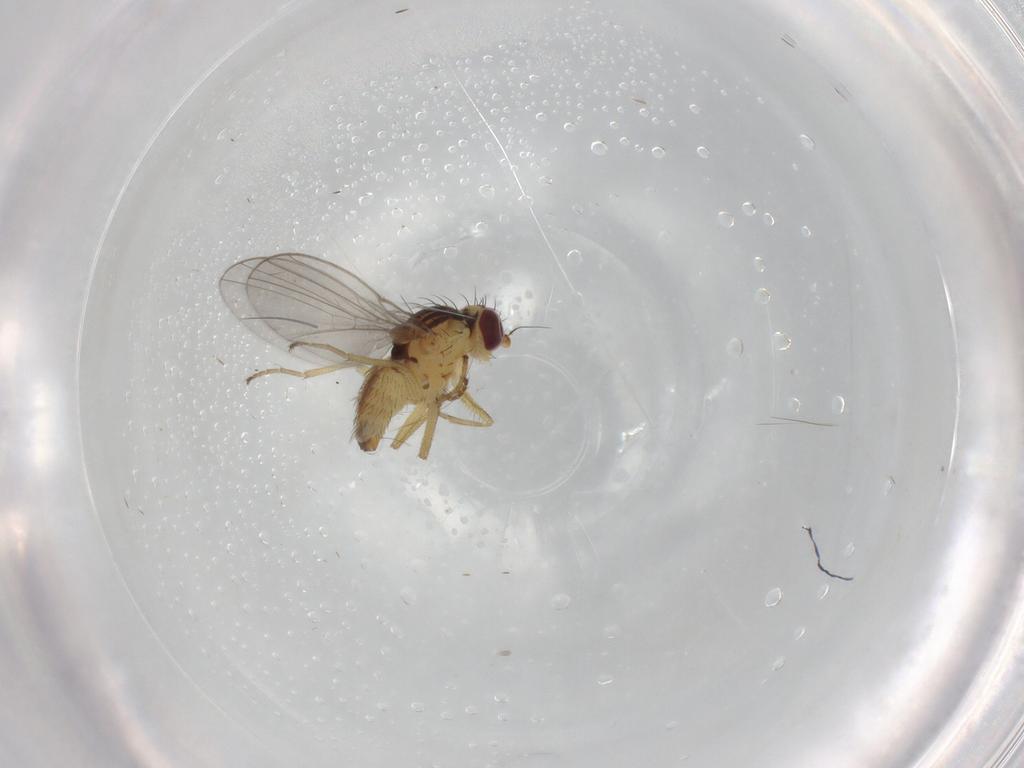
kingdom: Animalia
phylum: Arthropoda
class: Insecta
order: Diptera
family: Agromyzidae
